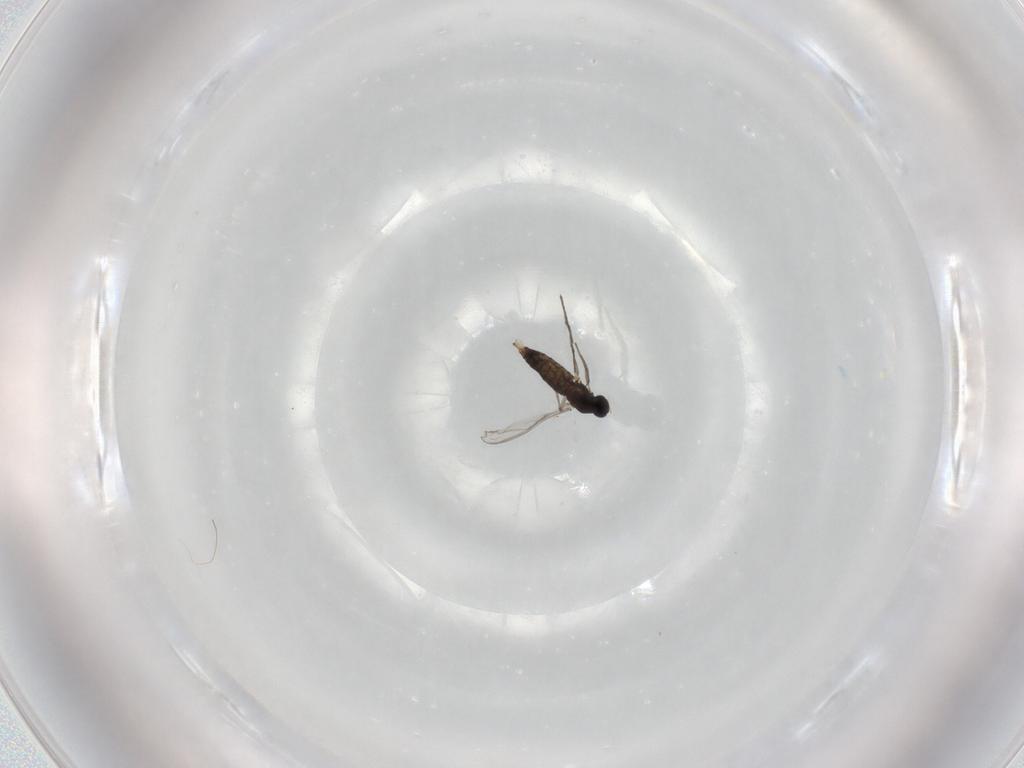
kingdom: Animalia
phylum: Arthropoda
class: Insecta
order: Diptera
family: Chironomidae
